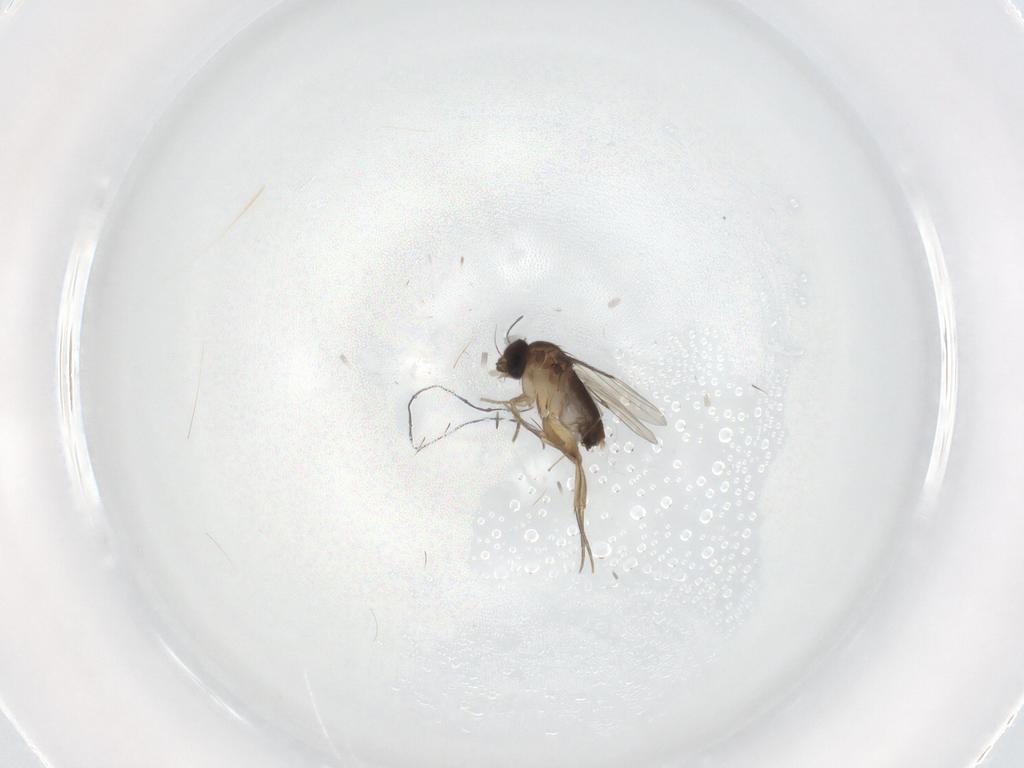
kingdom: Animalia
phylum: Arthropoda
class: Insecta
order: Diptera
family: Phoridae
